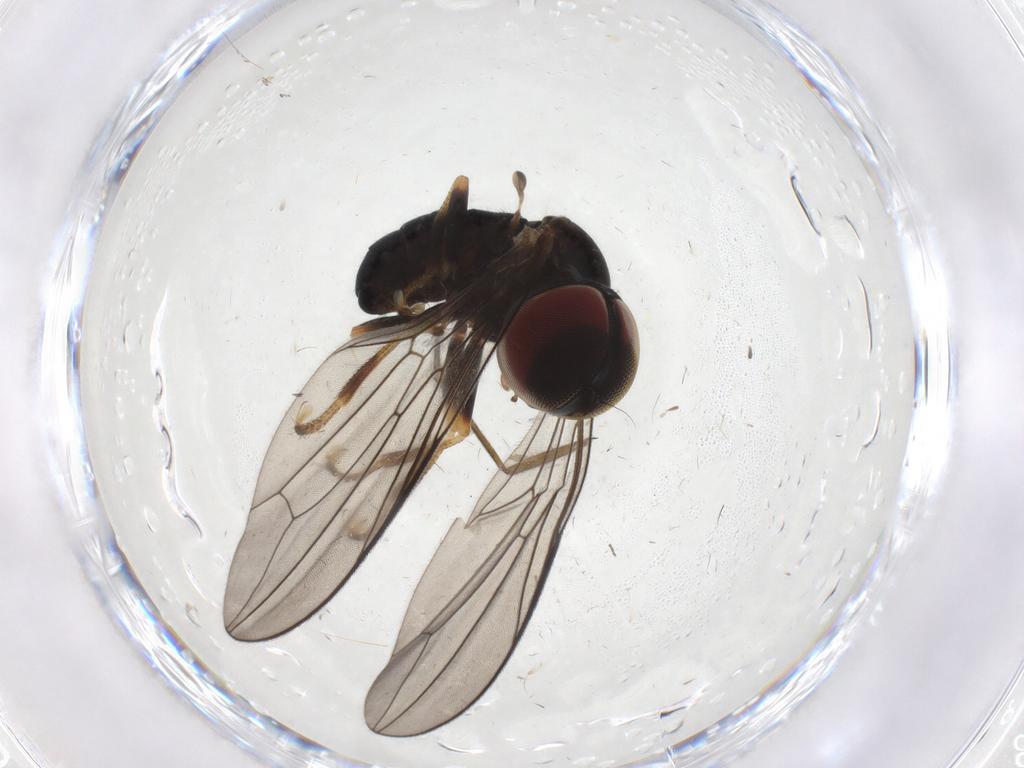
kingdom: Animalia
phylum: Arthropoda
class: Insecta
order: Diptera
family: Pipunculidae
